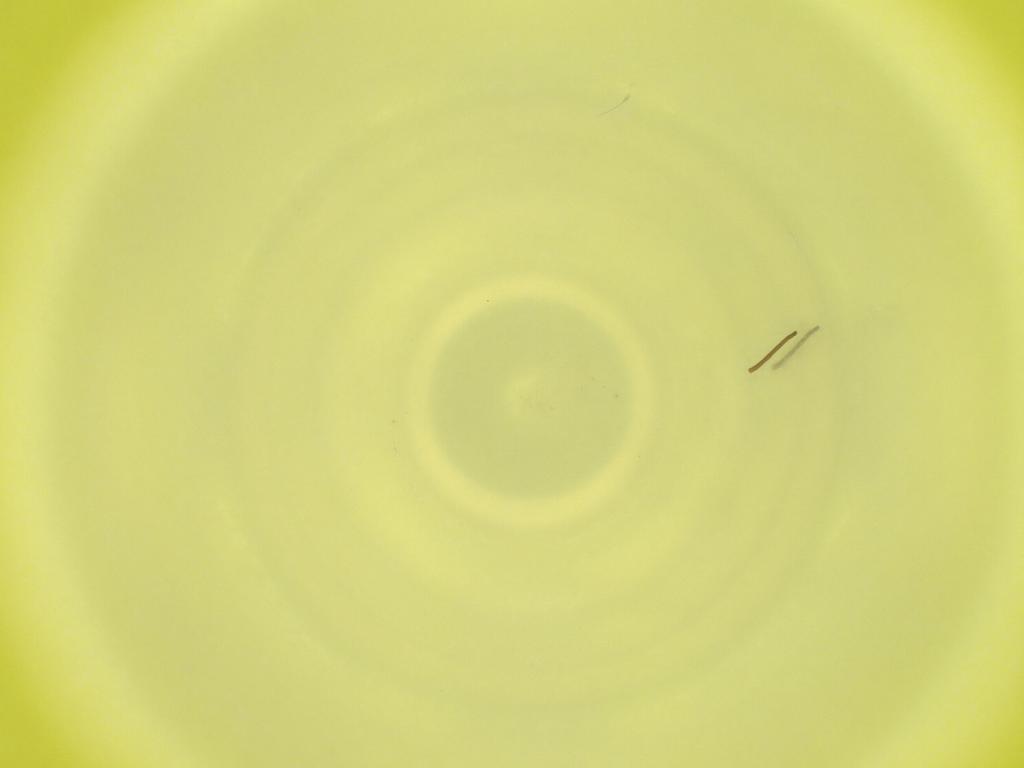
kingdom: Animalia
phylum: Arthropoda
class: Insecta
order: Diptera
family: Cecidomyiidae
